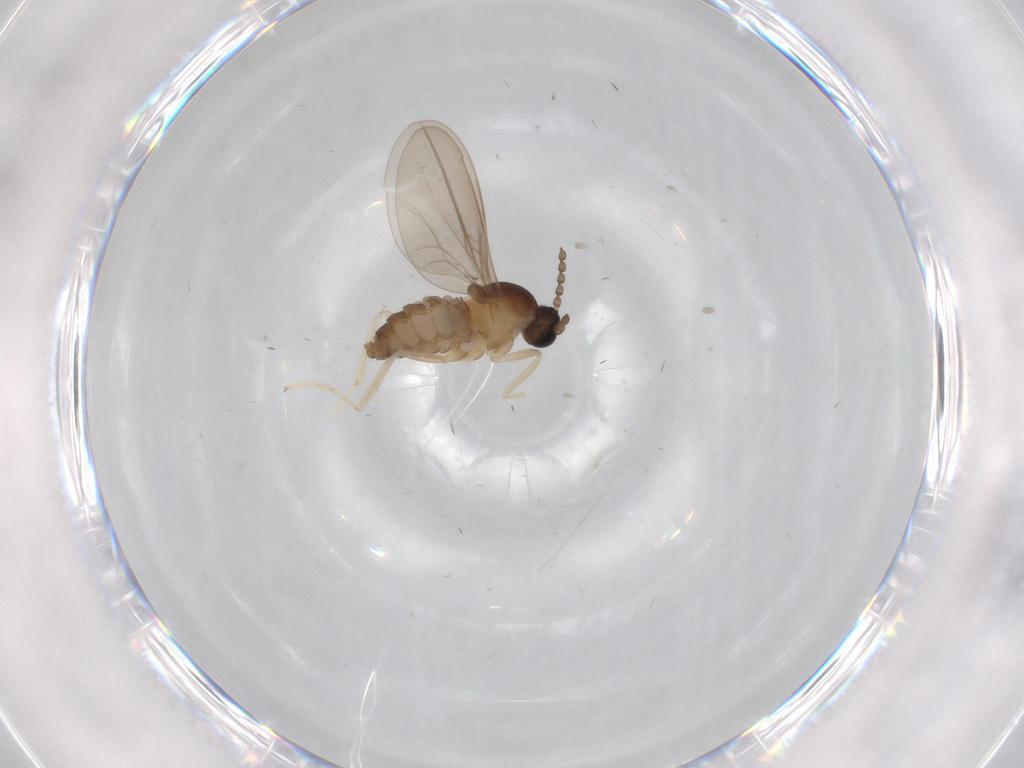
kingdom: Animalia
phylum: Arthropoda
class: Insecta
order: Diptera
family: Cecidomyiidae
